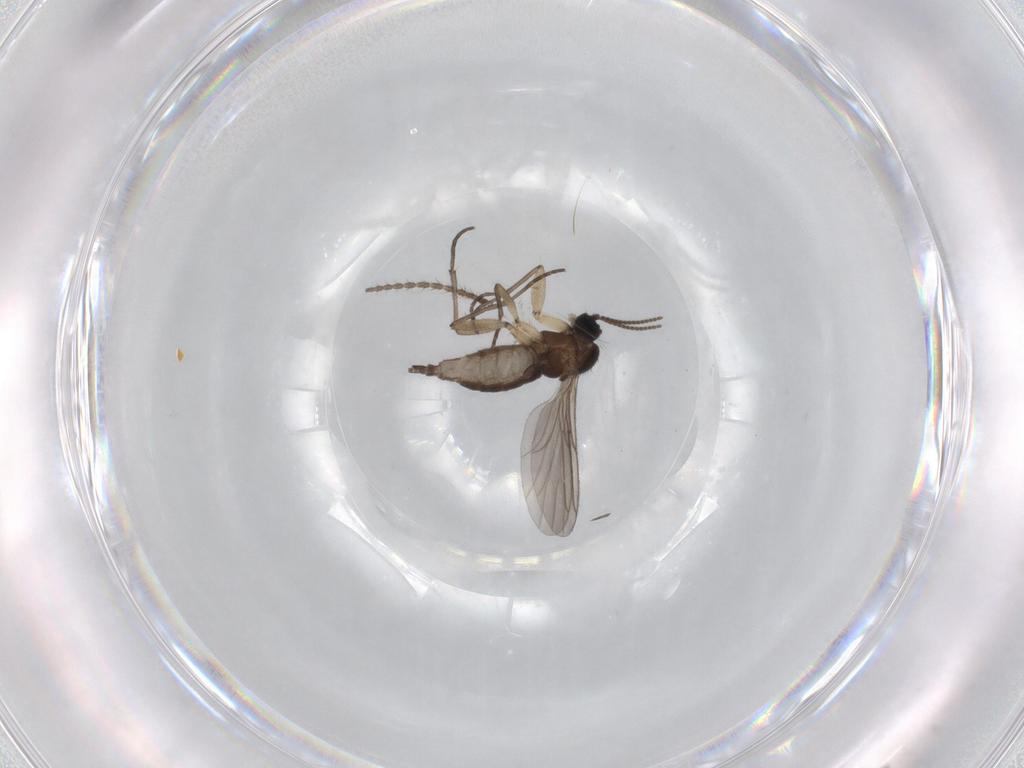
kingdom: Animalia
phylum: Arthropoda
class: Insecta
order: Diptera
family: Sciaridae
